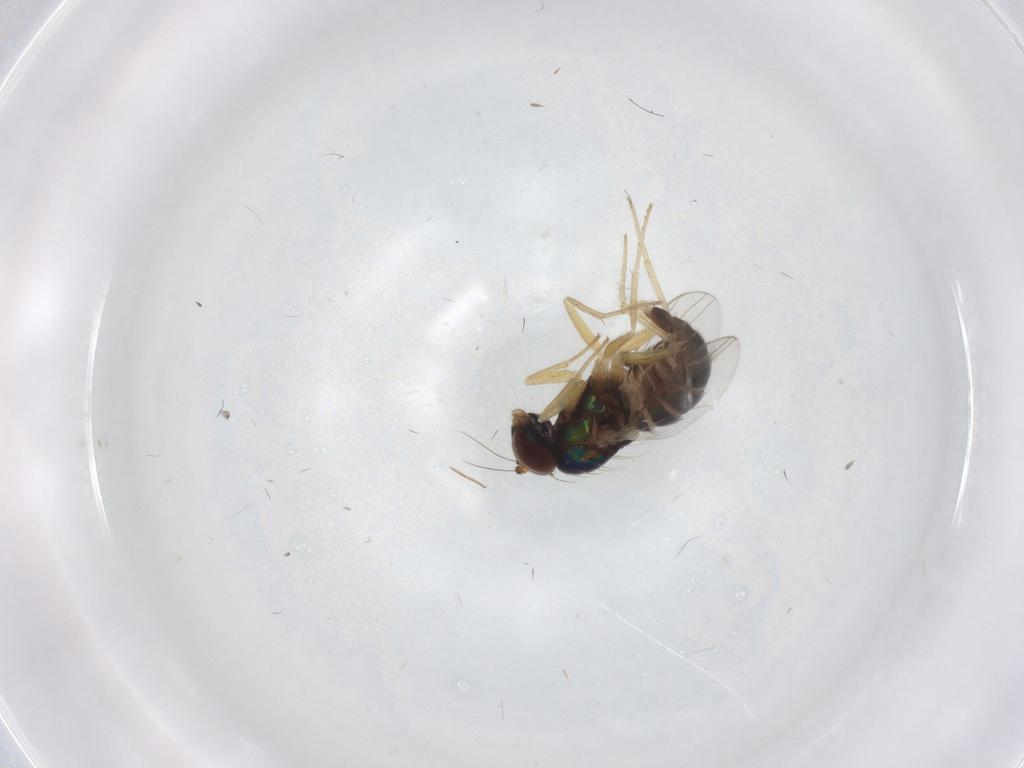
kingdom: Animalia
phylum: Arthropoda
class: Insecta
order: Diptera
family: Dolichopodidae
